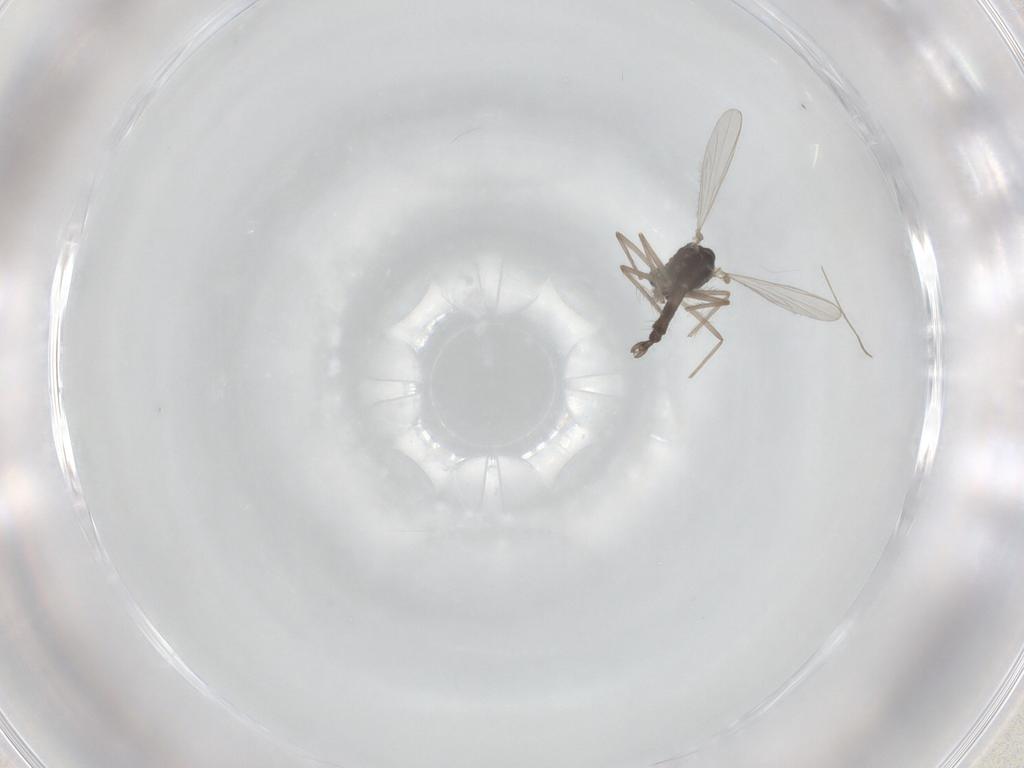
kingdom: Animalia
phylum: Arthropoda
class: Insecta
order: Diptera
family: Chironomidae
